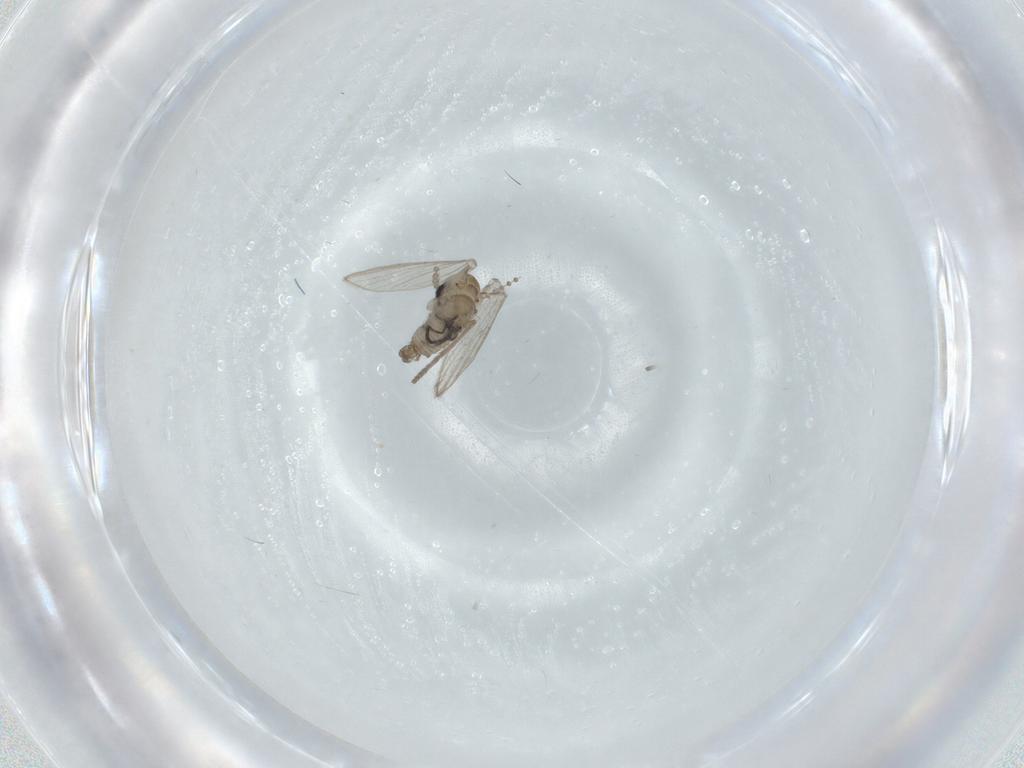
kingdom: Animalia
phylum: Arthropoda
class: Insecta
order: Diptera
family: Psychodidae
